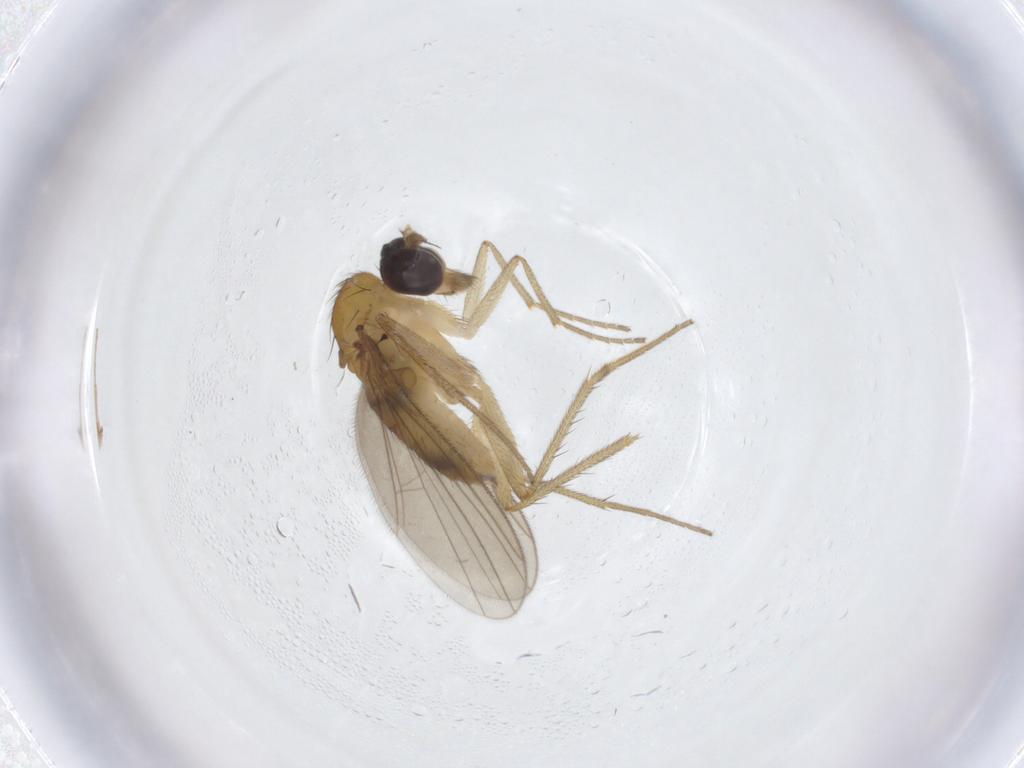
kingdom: Animalia
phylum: Arthropoda
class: Insecta
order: Diptera
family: Dolichopodidae
